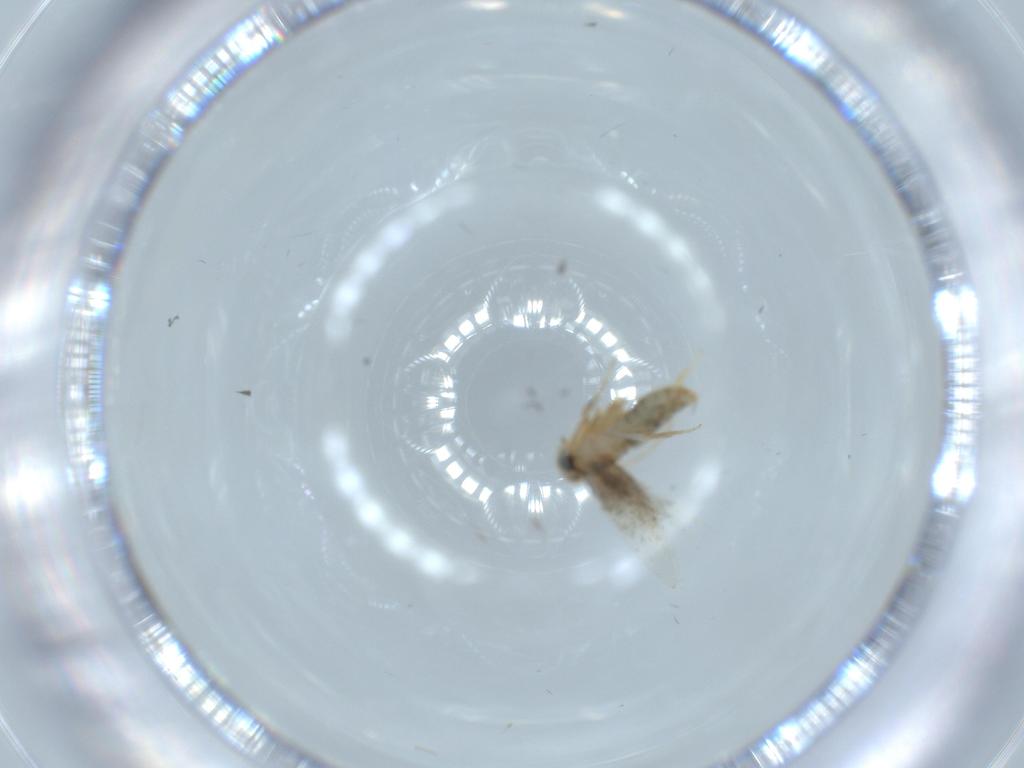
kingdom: Animalia
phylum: Arthropoda
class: Insecta
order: Lepidoptera
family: Nepticulidae
